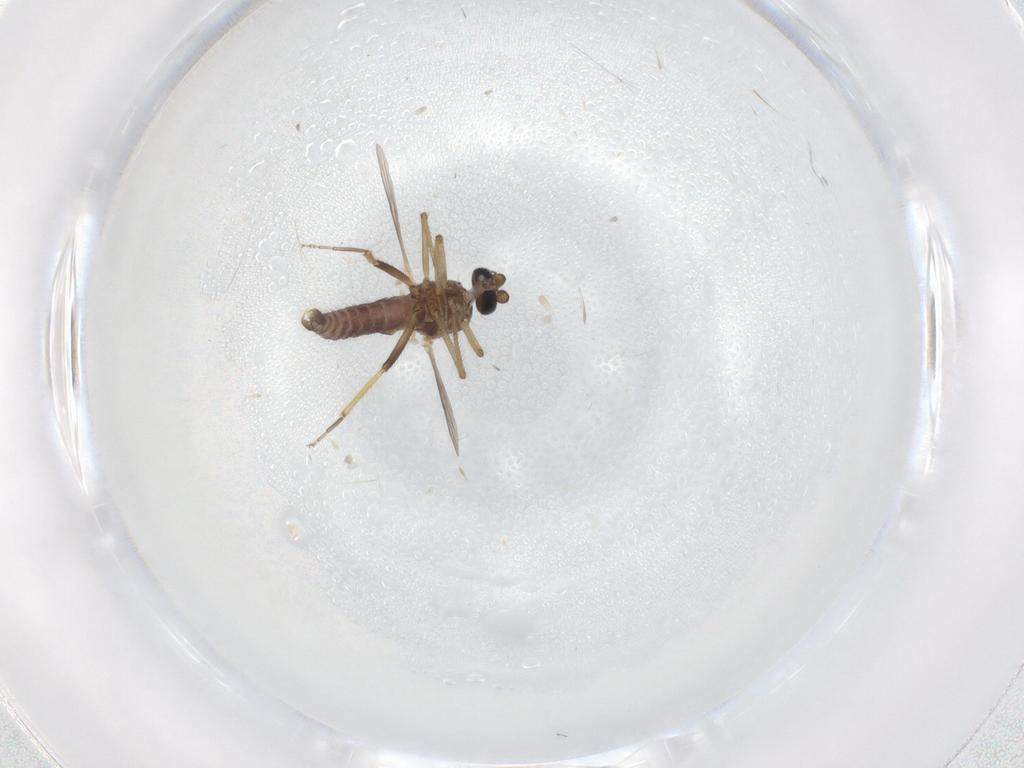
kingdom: Animalia
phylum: Arthropoda
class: Insecta
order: Diptera
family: Ceratopogonidae
